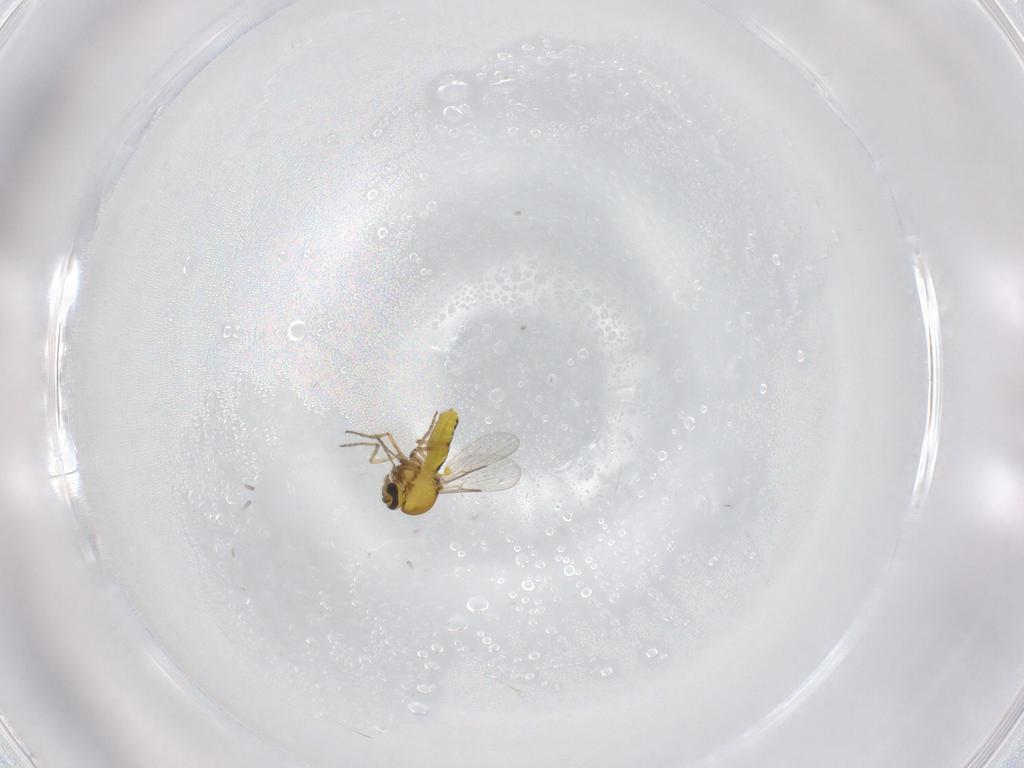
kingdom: Animalia
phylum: Arthropoda
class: Insecta
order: Diptera
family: Ceratopogonidae
